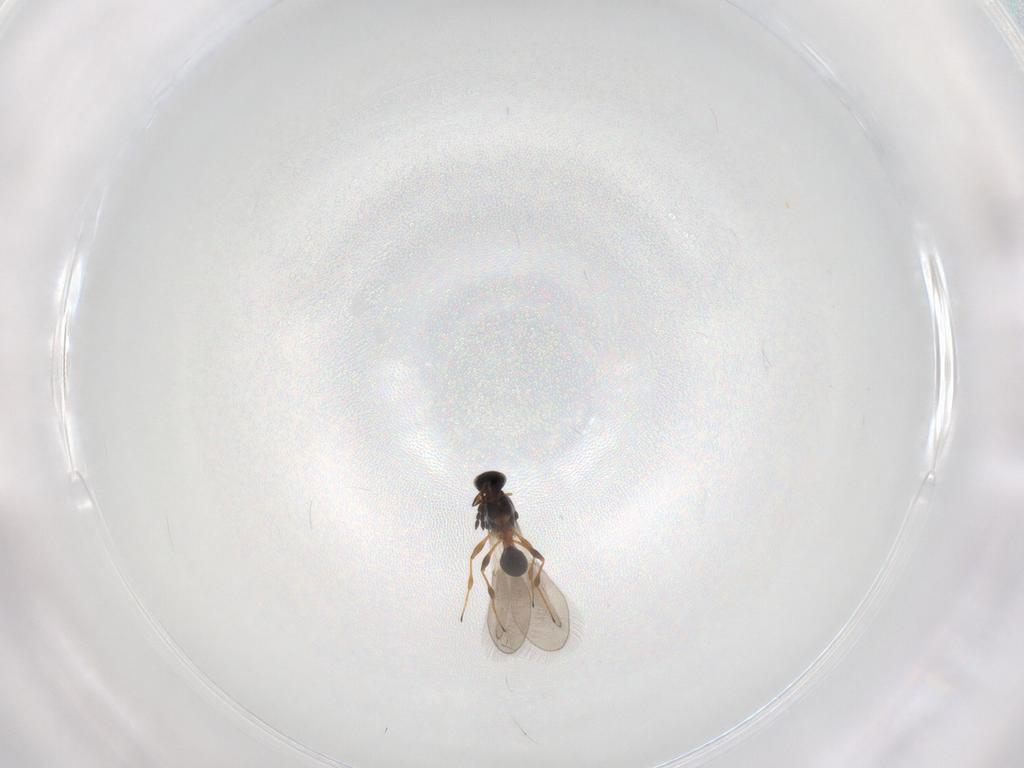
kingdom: Animalia
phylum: Arthropoda
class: Insecta
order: Hymenoptera
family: Platygastridae
